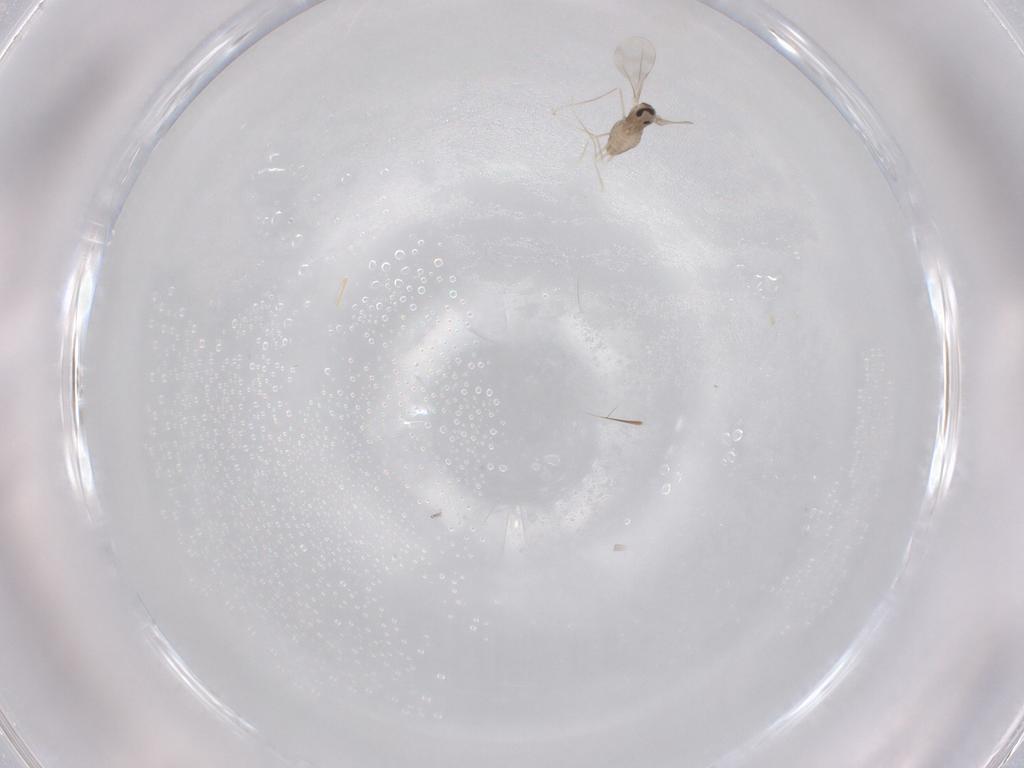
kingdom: Animalia
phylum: Arthropoda
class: Insecta
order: Diptera
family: Cecidomyiidae
